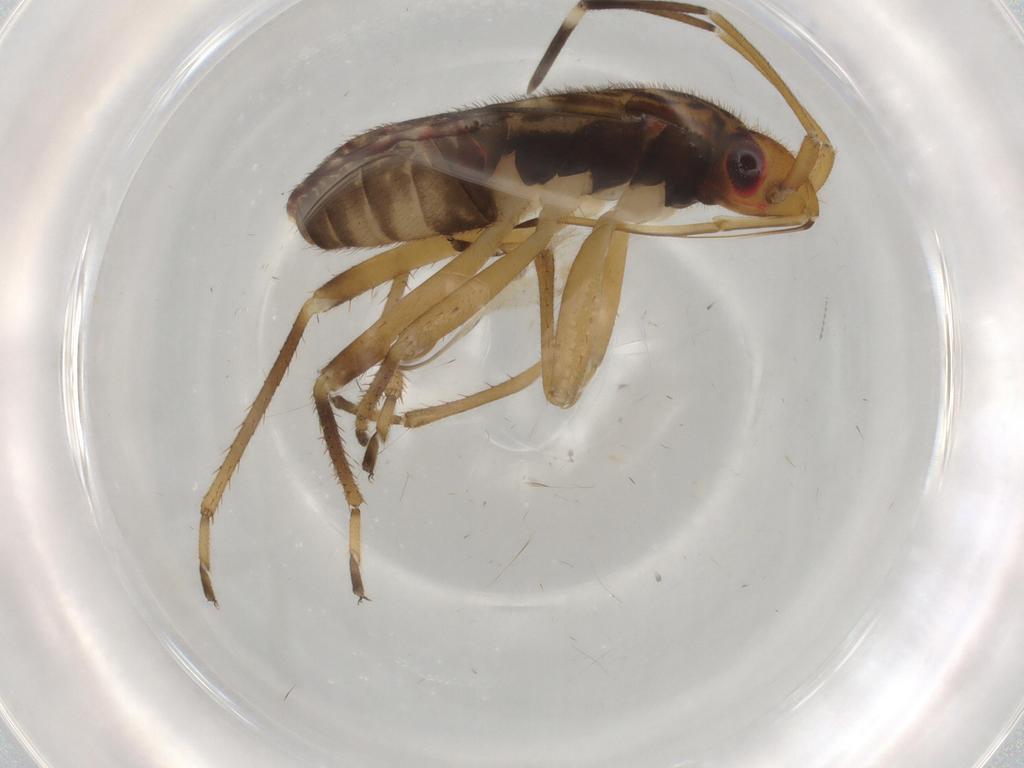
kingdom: Animalia
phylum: Arthropoda
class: Insecta
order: Hemiptera
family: Rhyparochromidae
